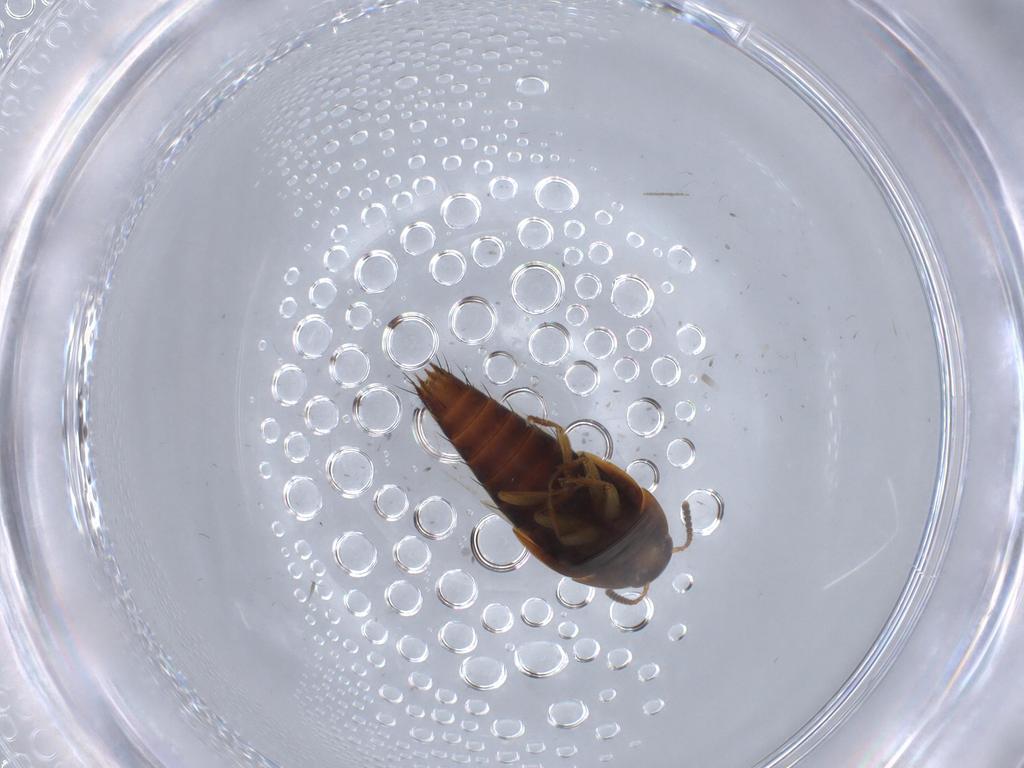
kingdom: Animalia
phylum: Arthropoda
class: Insecta
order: Coleoptera
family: Staphylinidae
